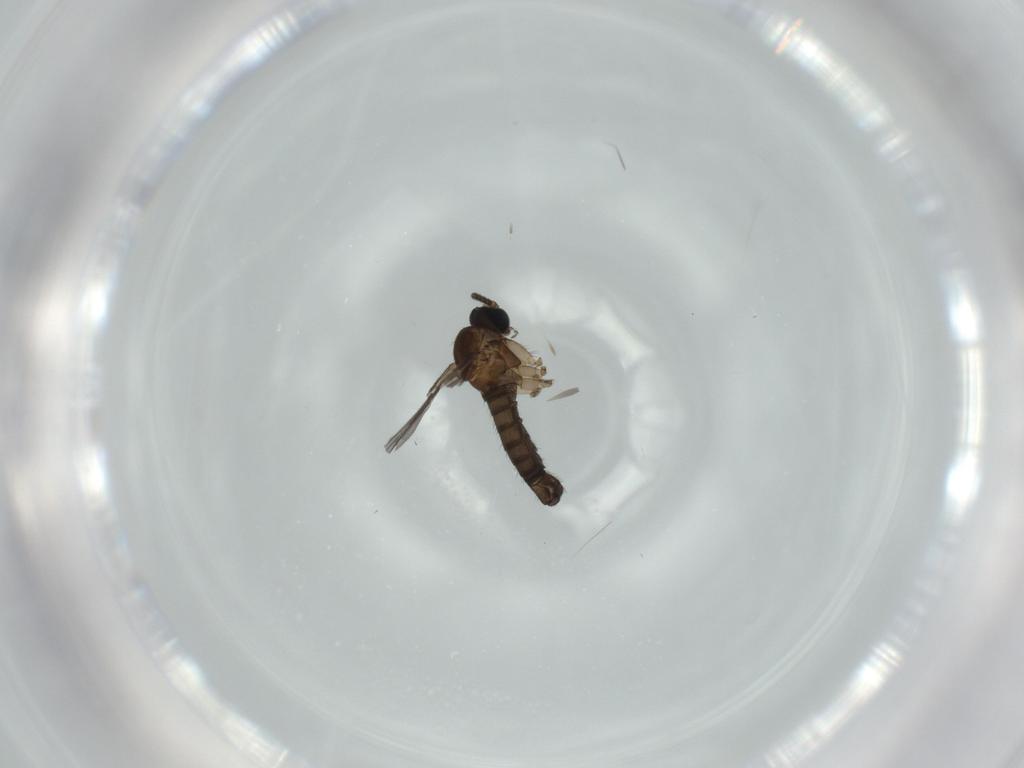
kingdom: Animalia
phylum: Arthropoda
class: Insecta
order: Diptera
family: Sciaridae
